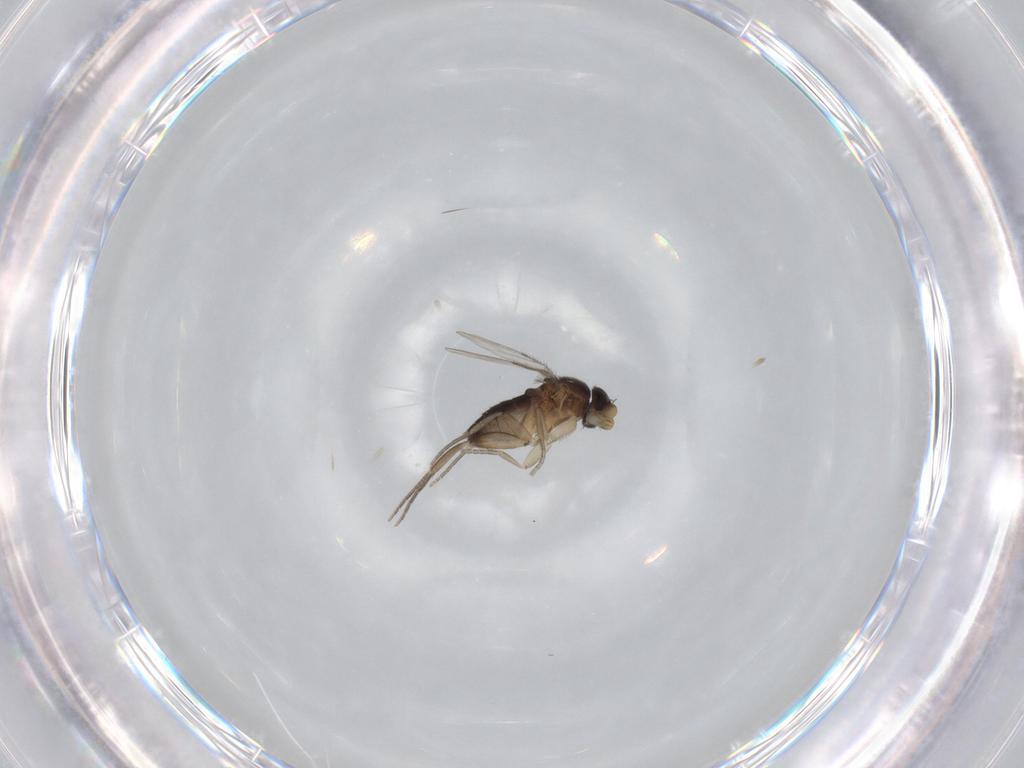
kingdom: Animalia
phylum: Arthropoda
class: Insecta
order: Diptera
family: Phoridae
